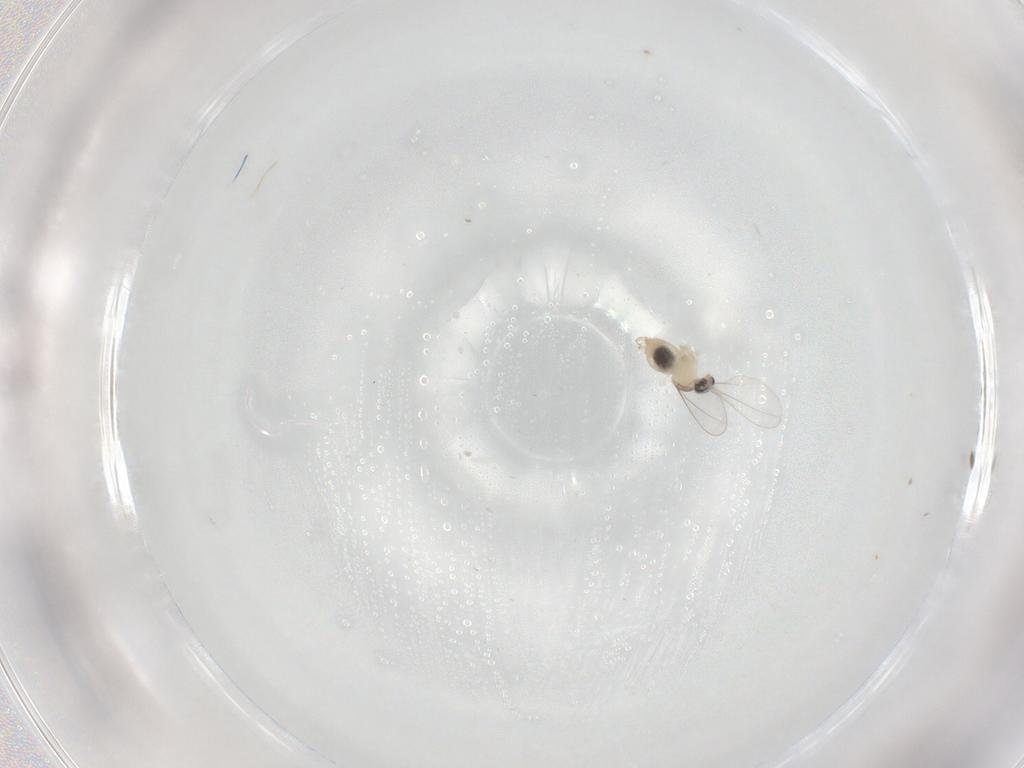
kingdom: Animalia
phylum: Arthropoda
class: Insecta
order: Diptera
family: Cecidomyiidae
